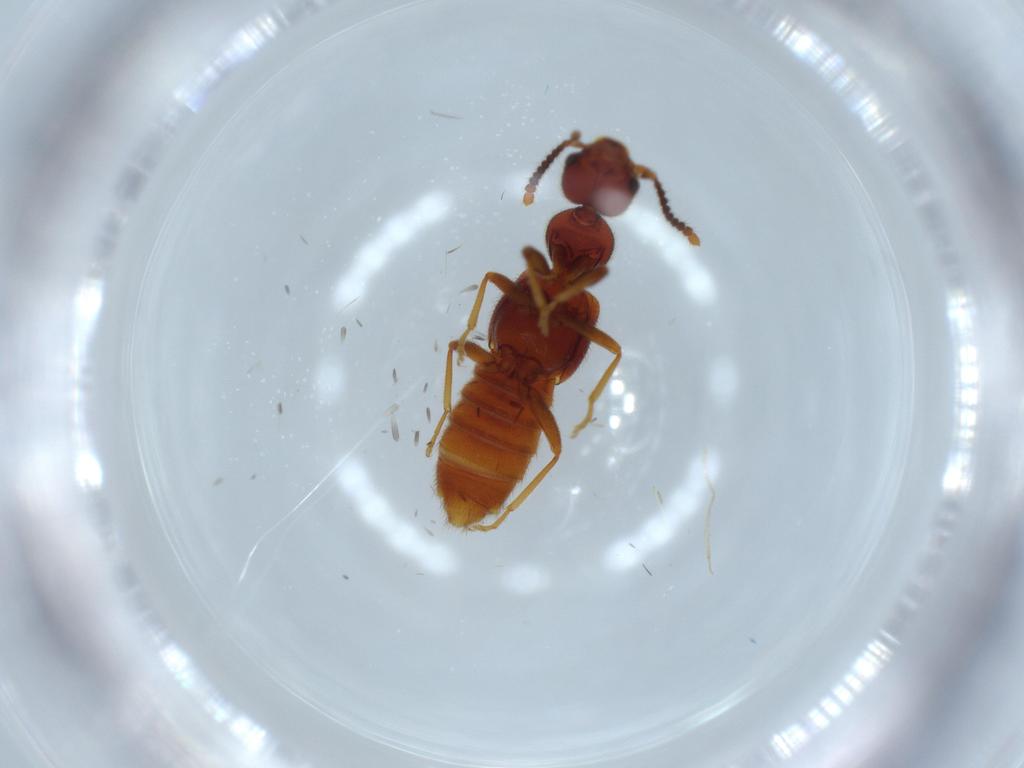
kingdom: Animalia
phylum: Arthropoda
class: Insecta
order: Coleoptera
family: Staphylinidae
